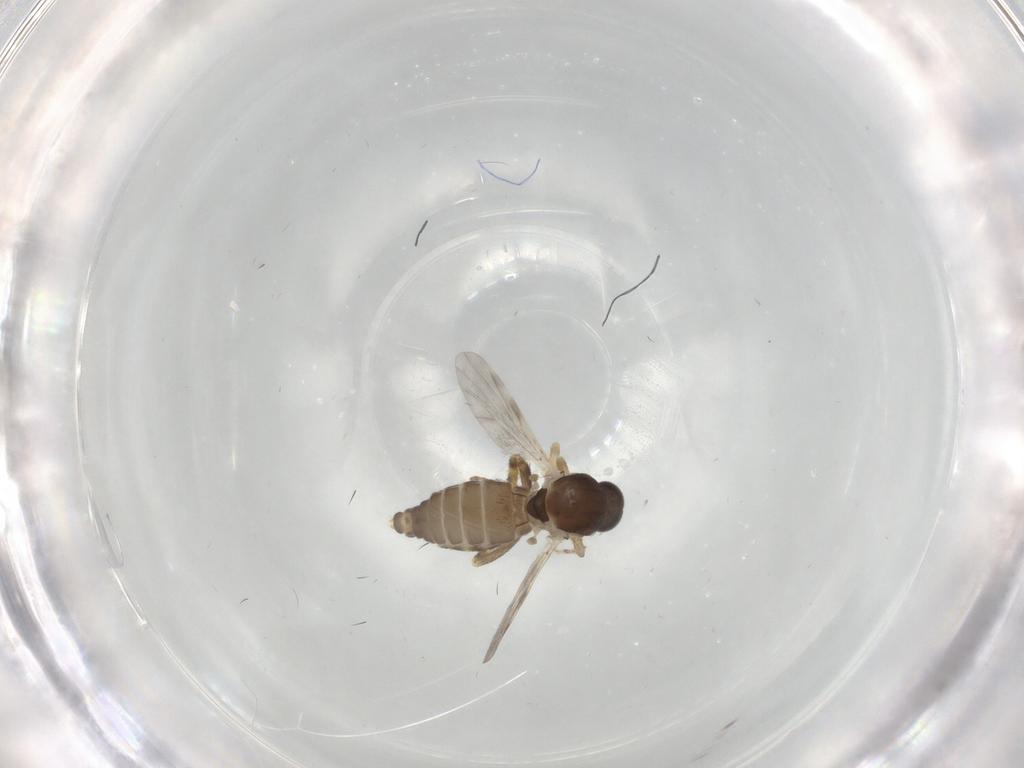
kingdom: Animalia
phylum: Arthropoda
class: Insecta
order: Diptera
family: Ceratopogonidae
